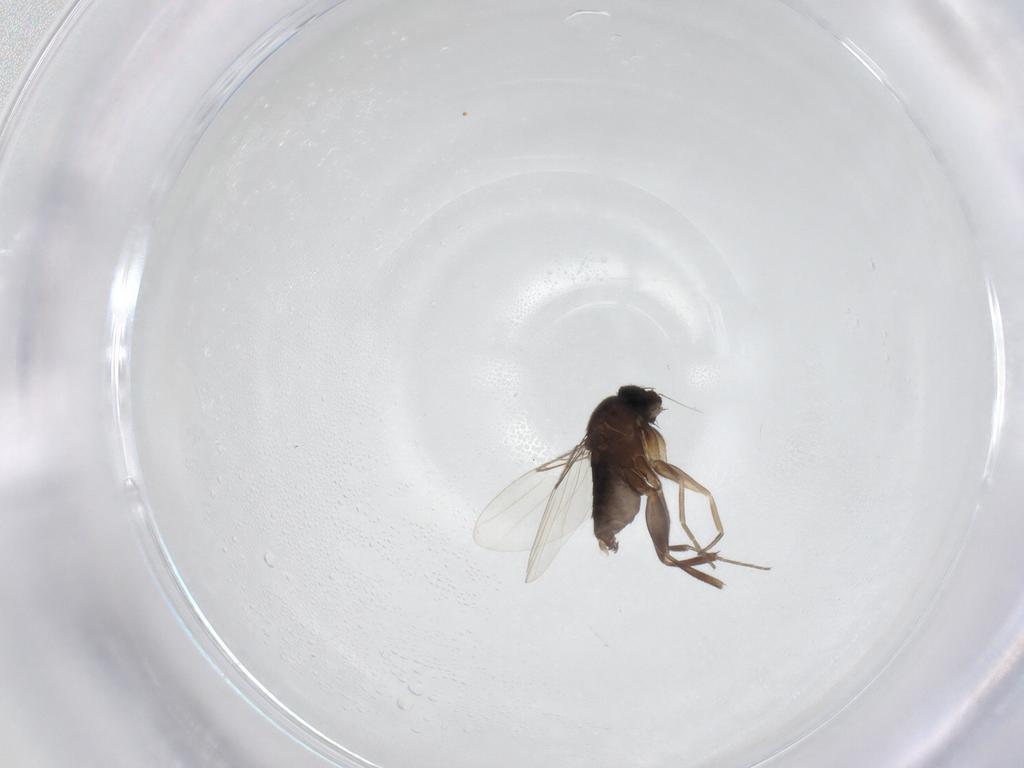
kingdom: Animalia
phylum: Arthropoda
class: Insecta
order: Diptera
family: Phoridae
